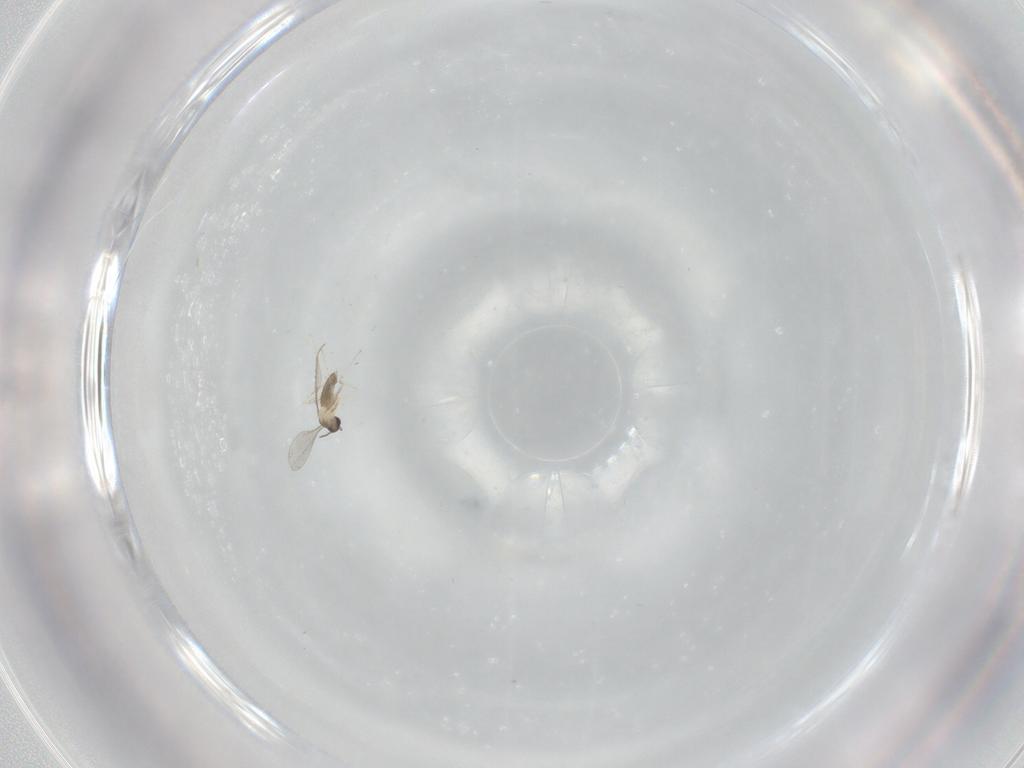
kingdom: Animalia
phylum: Arthropoda
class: Insecta
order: Diptera
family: Cecidomyiidae
